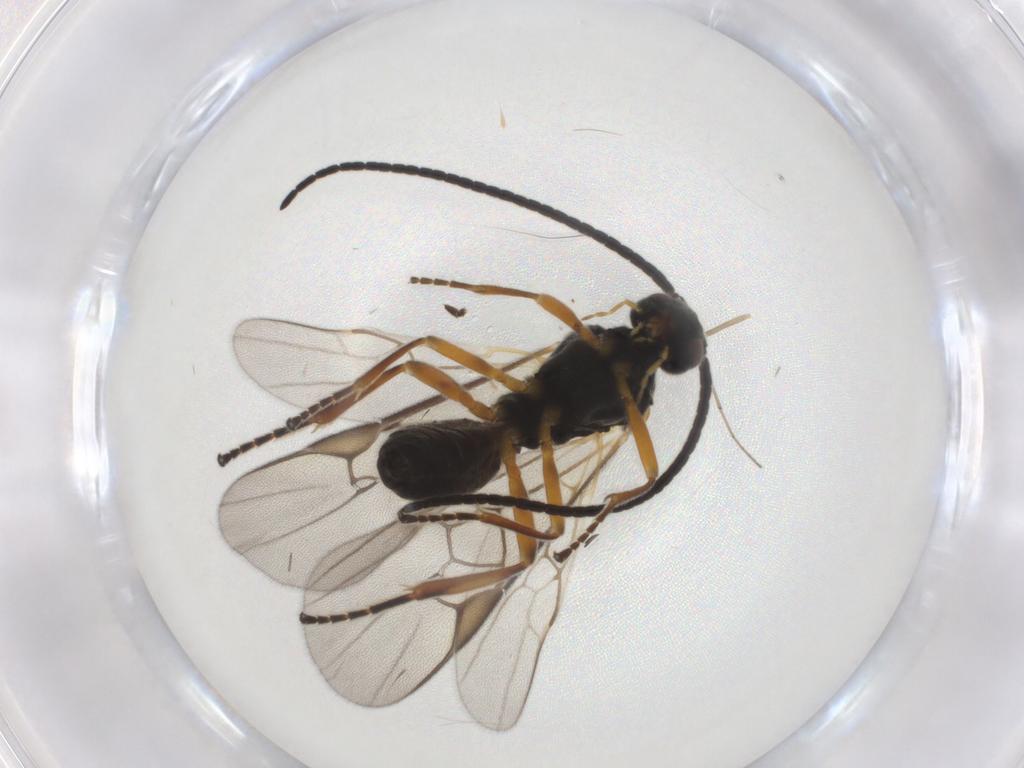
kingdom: Animalia
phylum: Arthropoda
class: Insecta
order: Hymenoptera
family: Braconidae
